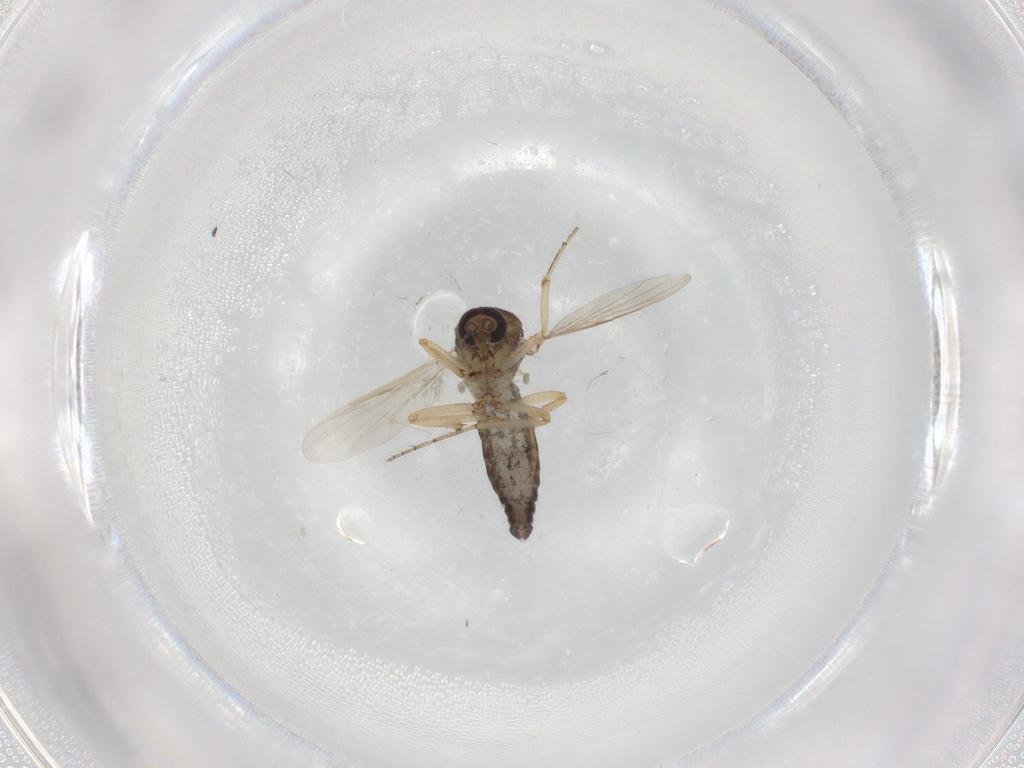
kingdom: Animalia
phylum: Arthropoda
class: Insecta
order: Diptera
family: Ceratopogonidae
